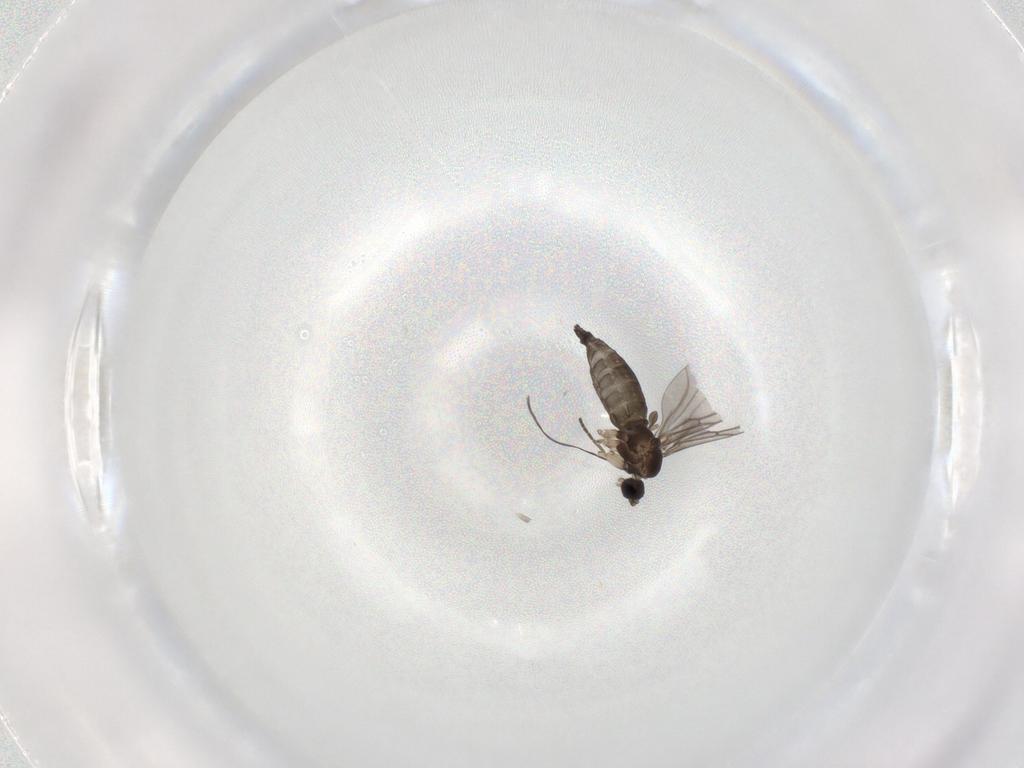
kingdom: Animalia
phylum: Arthropoda
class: Insecta
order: Diptera
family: Sciaridae
